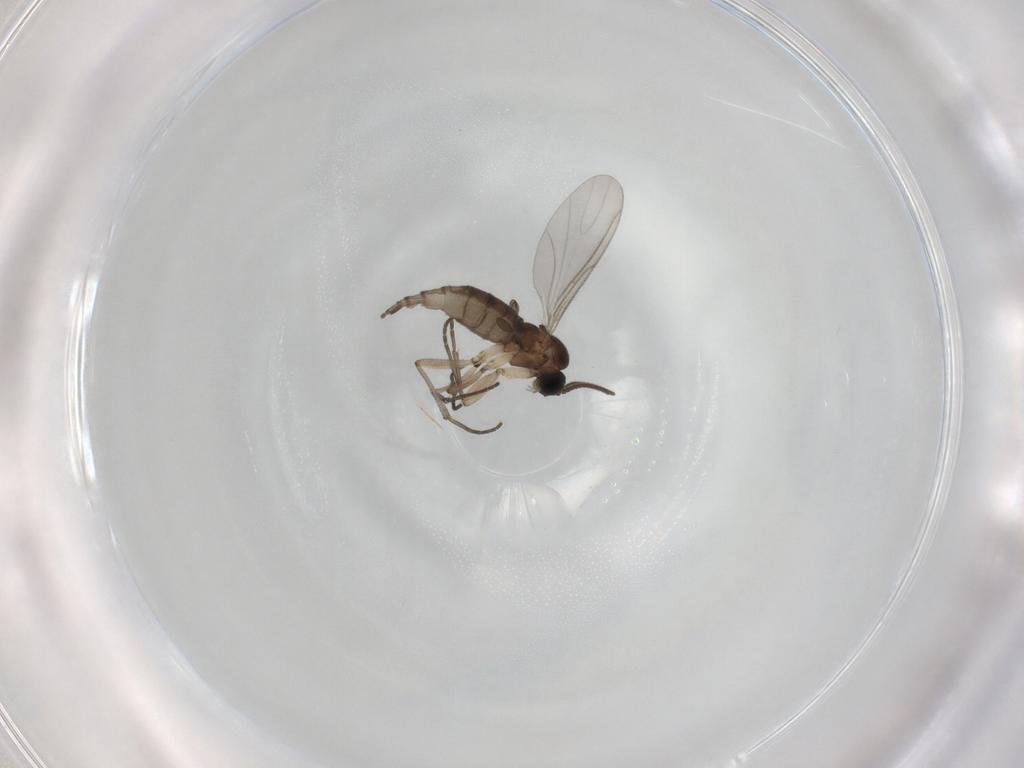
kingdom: Animalia
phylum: Arthropoda
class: Insecta
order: Diptera
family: Sciaridae
